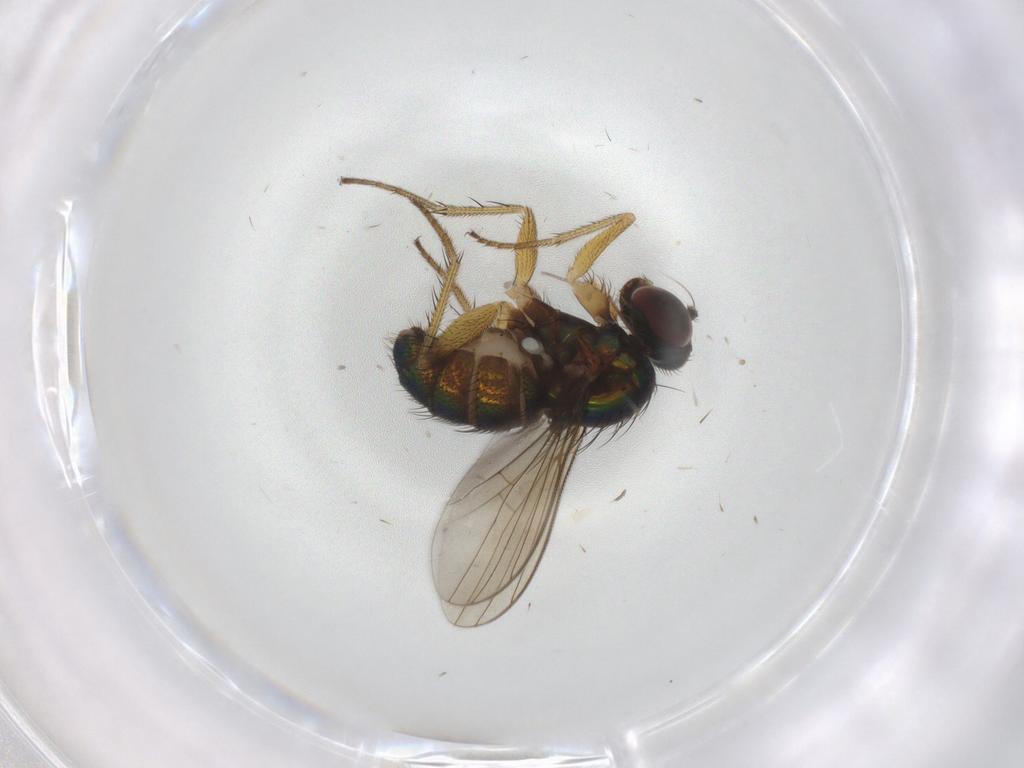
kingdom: Animalia
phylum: Arthropoda
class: Insecta
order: Diptera
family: Dolichopodidae
